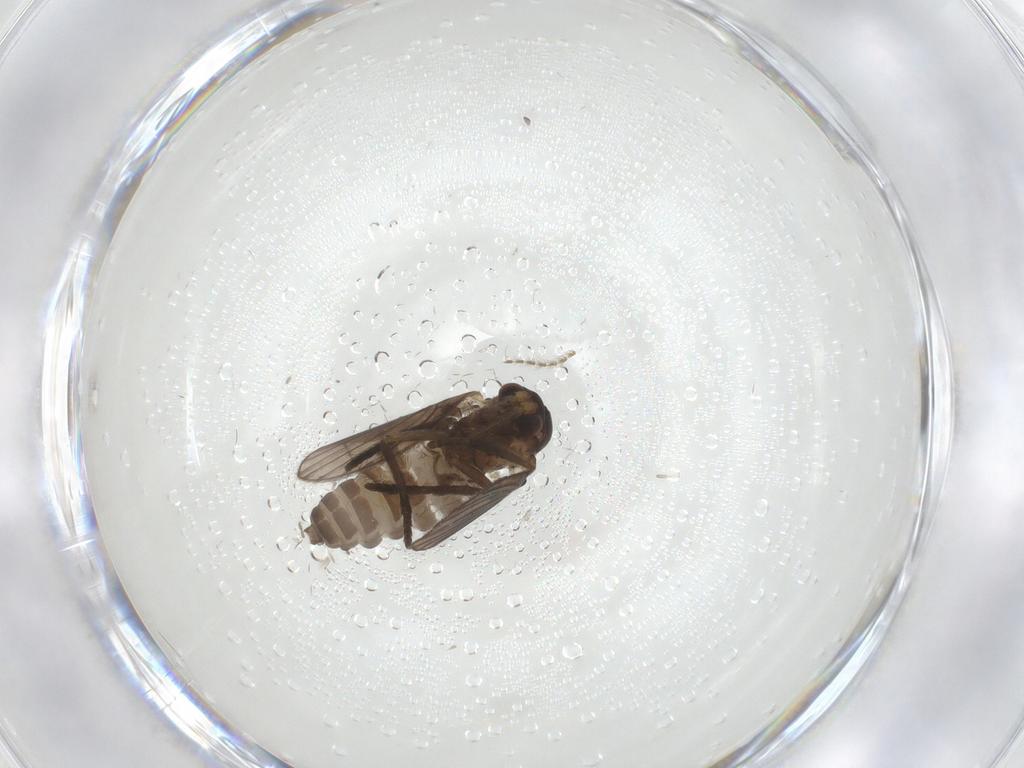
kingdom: Animalia
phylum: Arthropoda
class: Insecta
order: Diptera
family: Psychodidae
